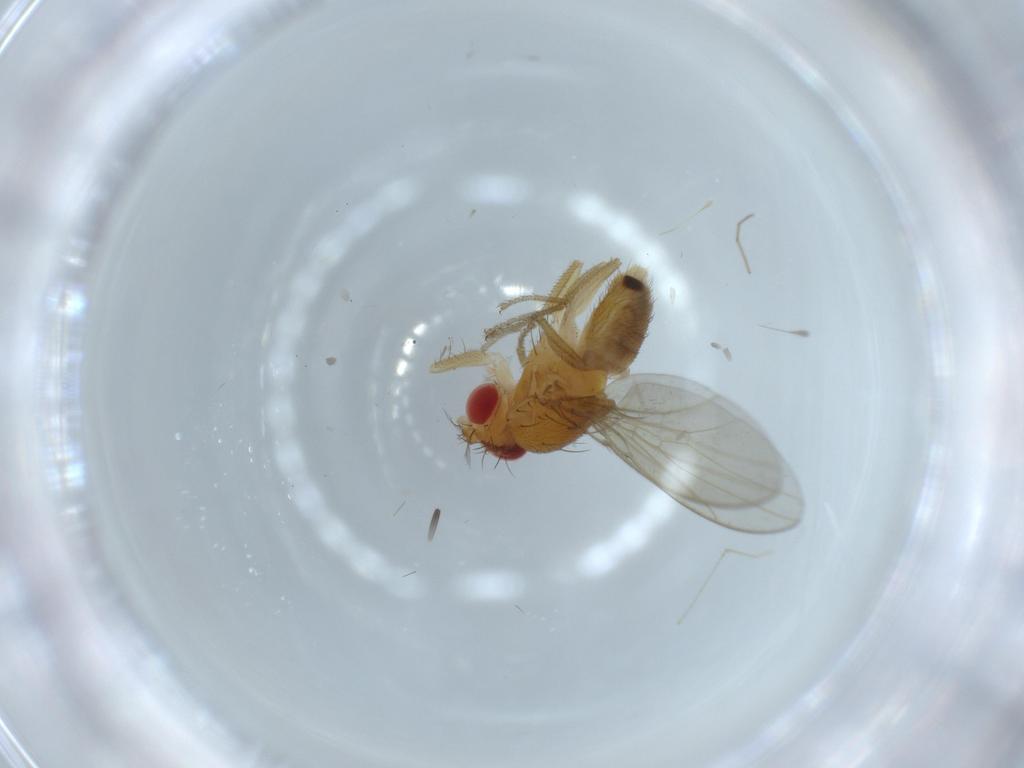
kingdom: Animalia
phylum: Arthropoda
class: Insecta
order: Diptera
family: Drosophilidae
